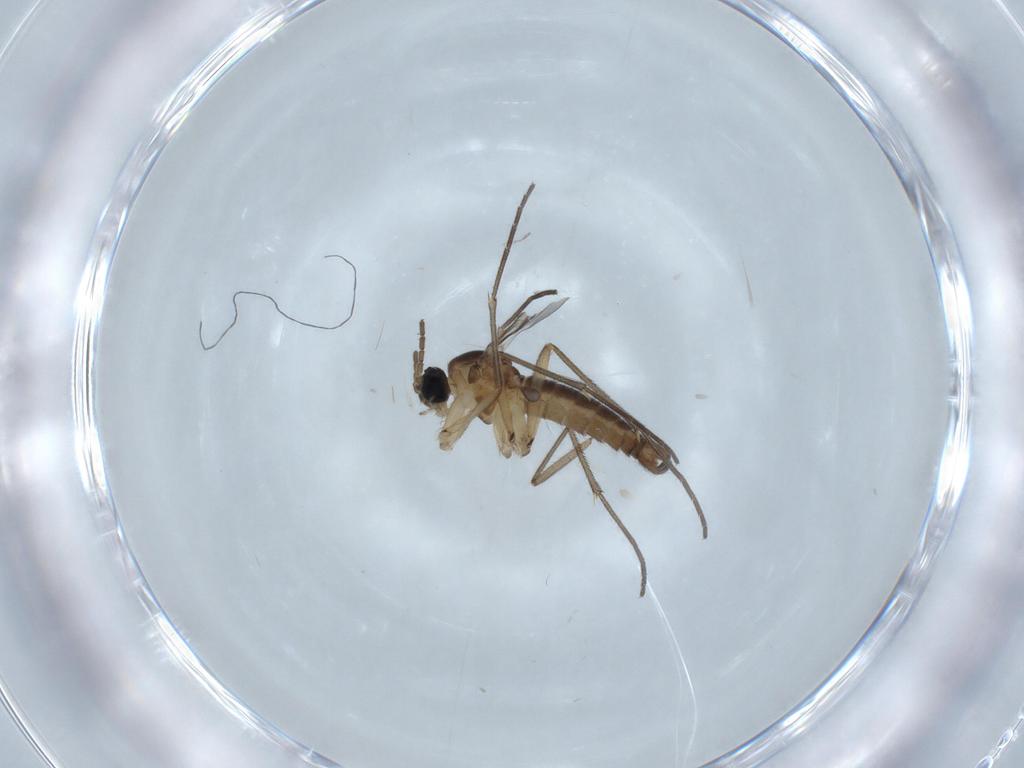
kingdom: Animalia
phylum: Arthropoda
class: Insecta
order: Diptera
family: Sciaridae
